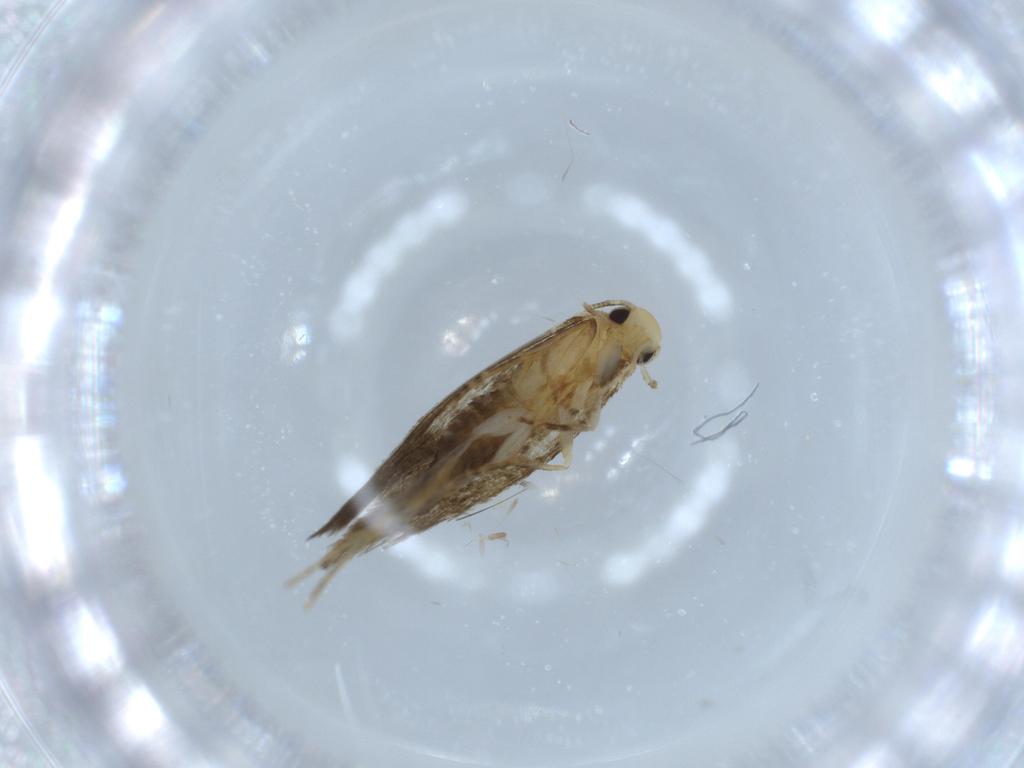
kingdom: Animalia
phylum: Arthropoda
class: Insecta
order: Lepidoptera
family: Tineidae
